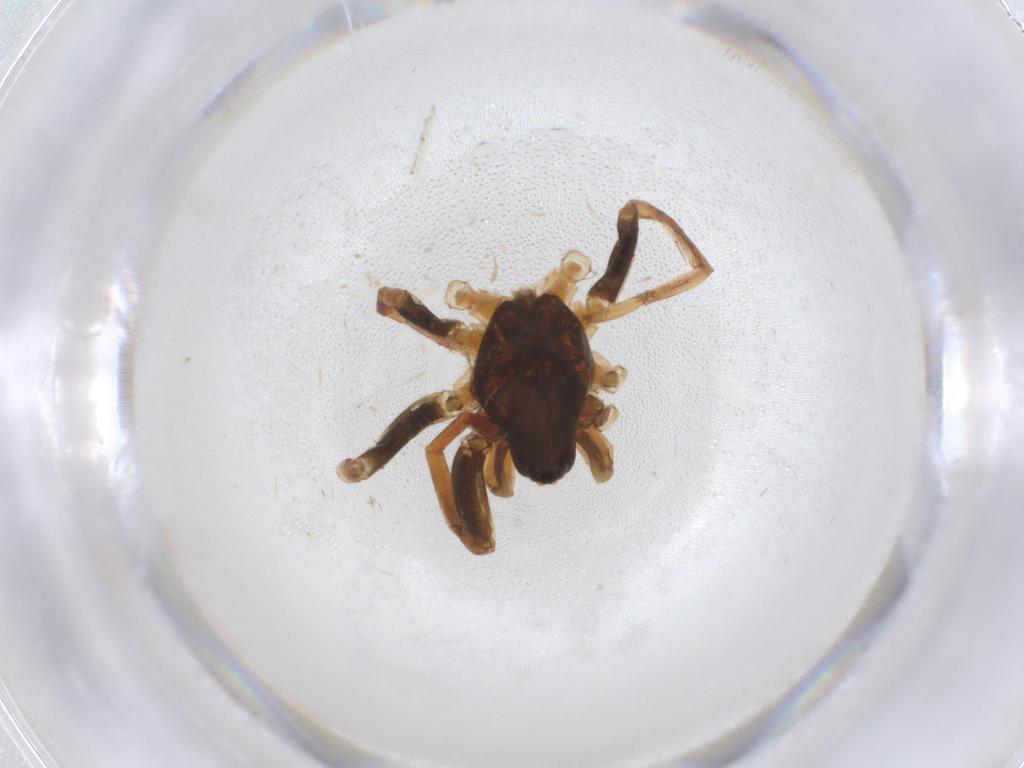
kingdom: Animalia
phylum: Arthropoda
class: Arachnida
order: Araneae
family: Gnaphosidae
